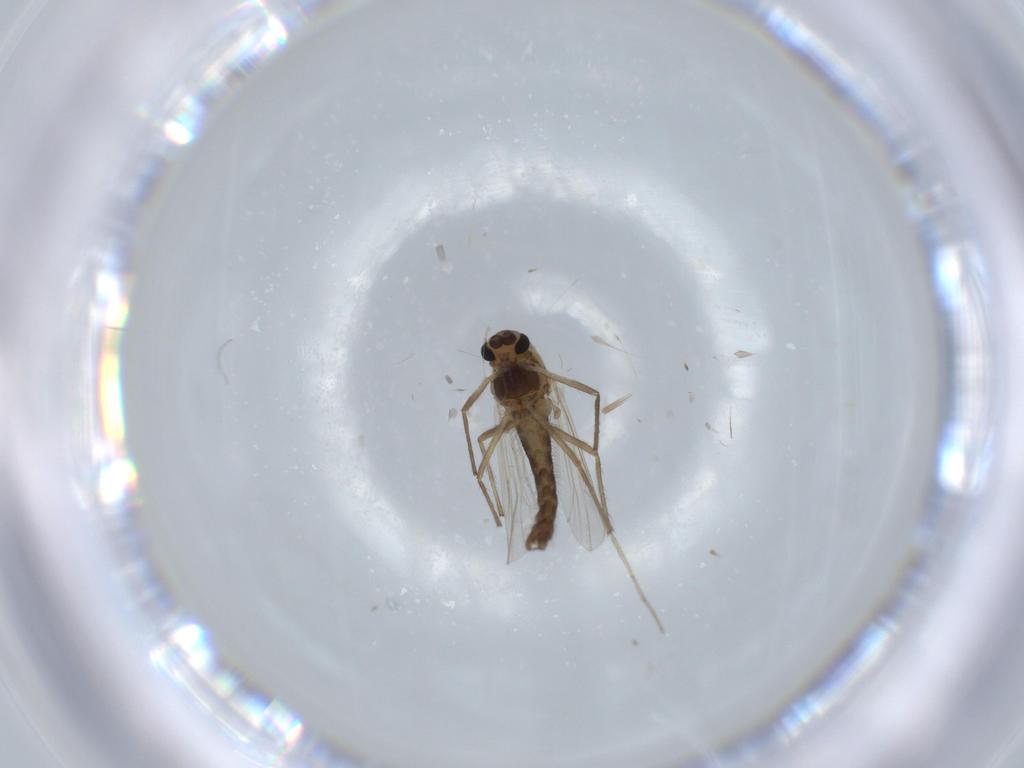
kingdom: Animalia
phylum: Arthropoda
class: Insecta
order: Diptera
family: Chironomidae
